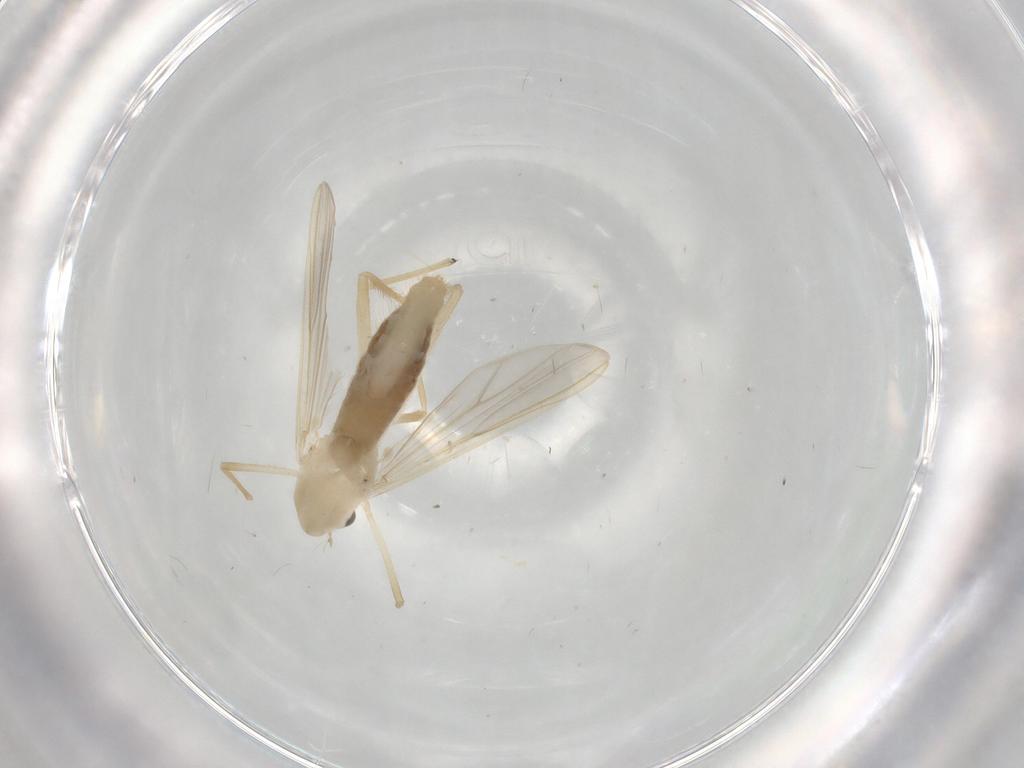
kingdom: Animalia
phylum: Arthropoda
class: Insecta
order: Diptera
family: Chironomidae
